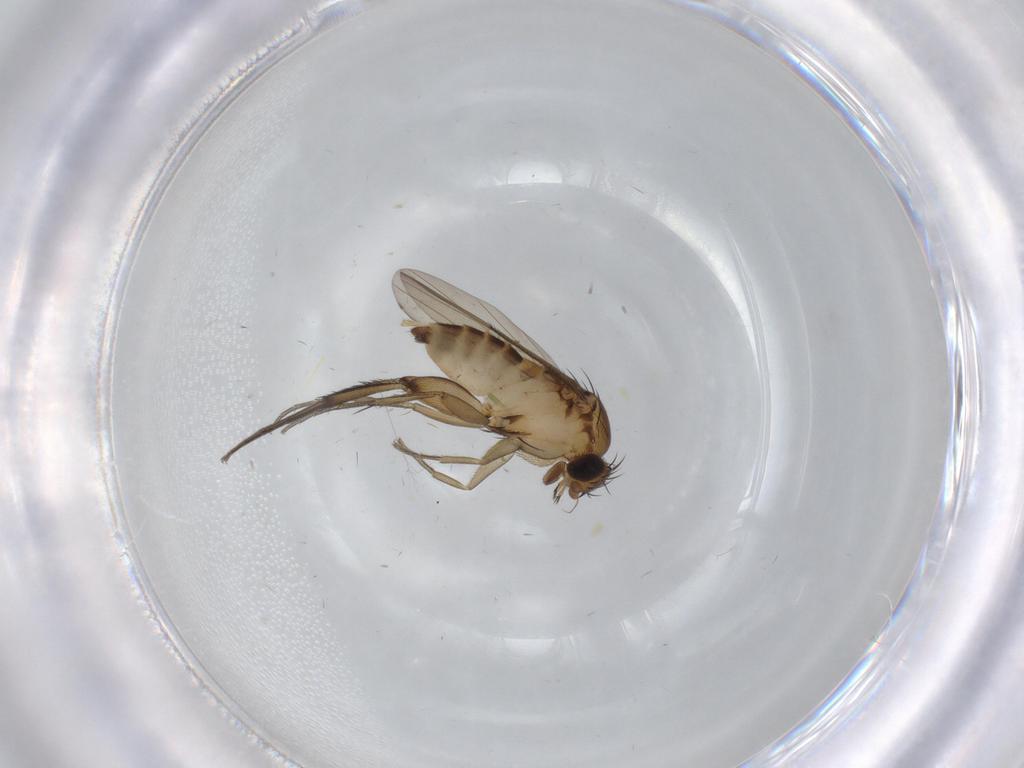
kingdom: Animalia
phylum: Arthropoda
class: Insecta
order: Diptera
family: Phoridae
